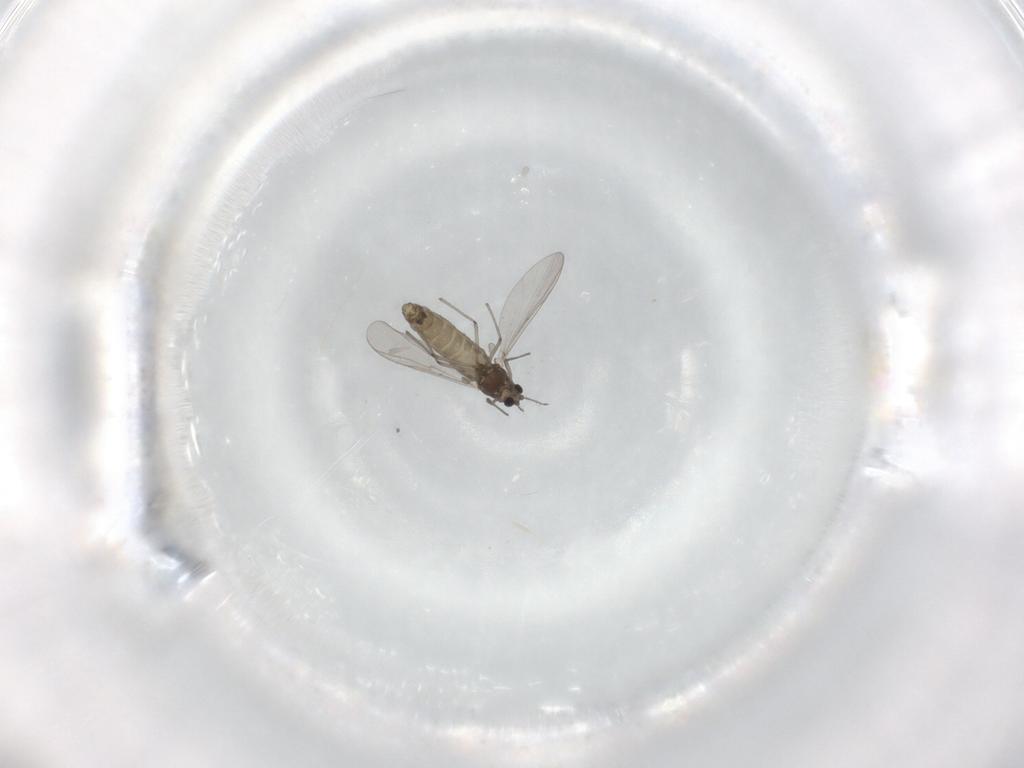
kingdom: Animalia
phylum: Arthropoda
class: Insecta
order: Diptera
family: Chironomidae
